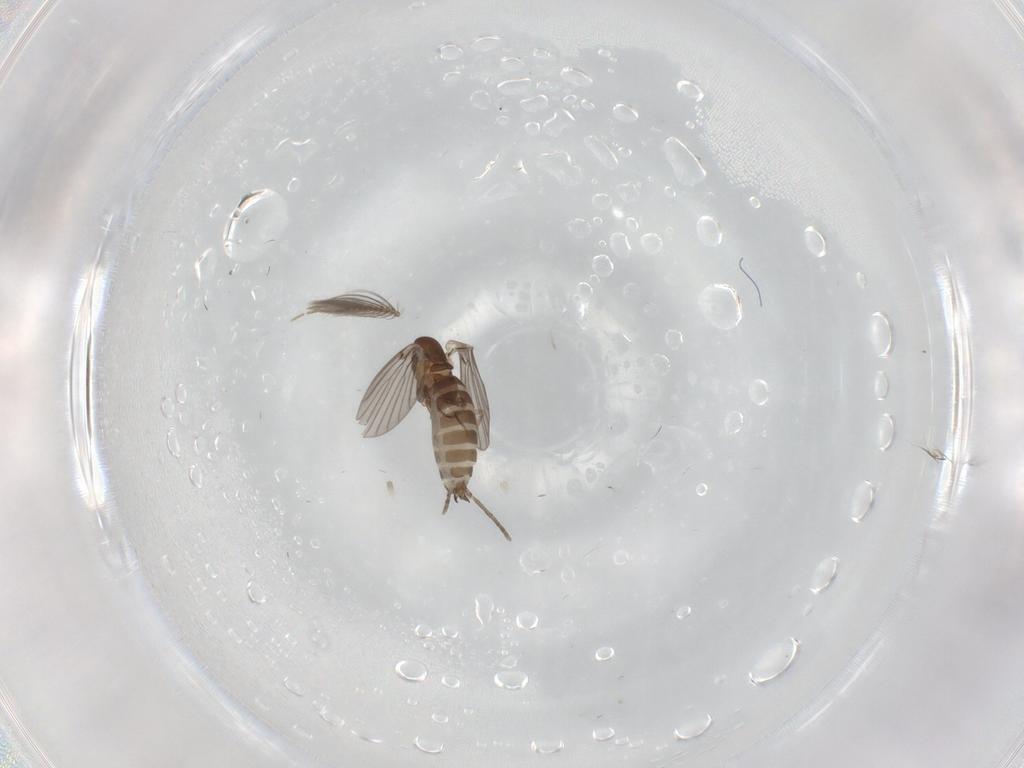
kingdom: Animalia
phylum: Arthropoda
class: Insecta
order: Diptera
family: Ceratopogonidae
